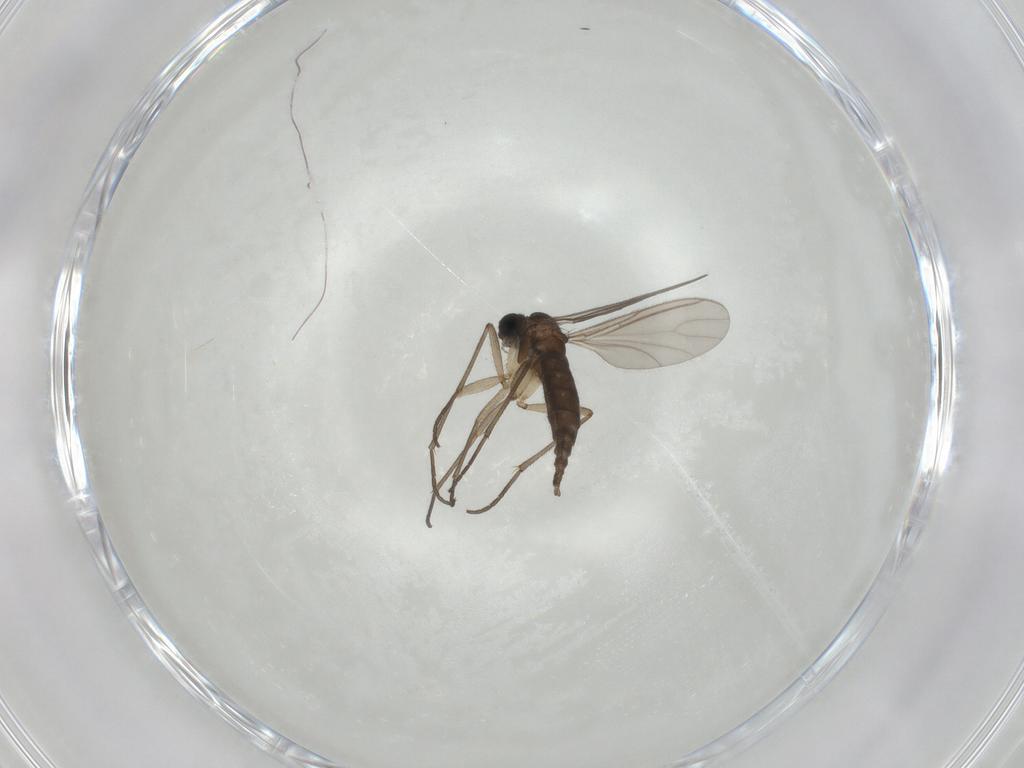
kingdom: Animalia
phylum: Arthropoda
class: Insecta
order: Diptera
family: Sciaridae
